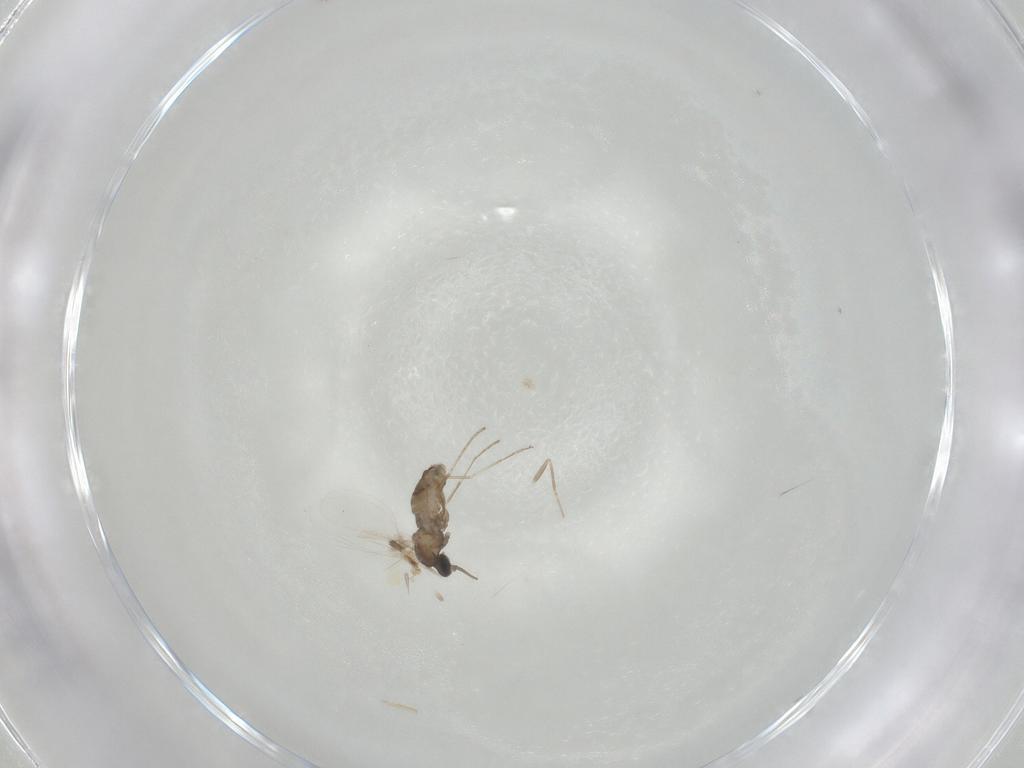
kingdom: Animalia
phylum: Arthropoda
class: Insecta
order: Diptera
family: Cecidomyiidae
